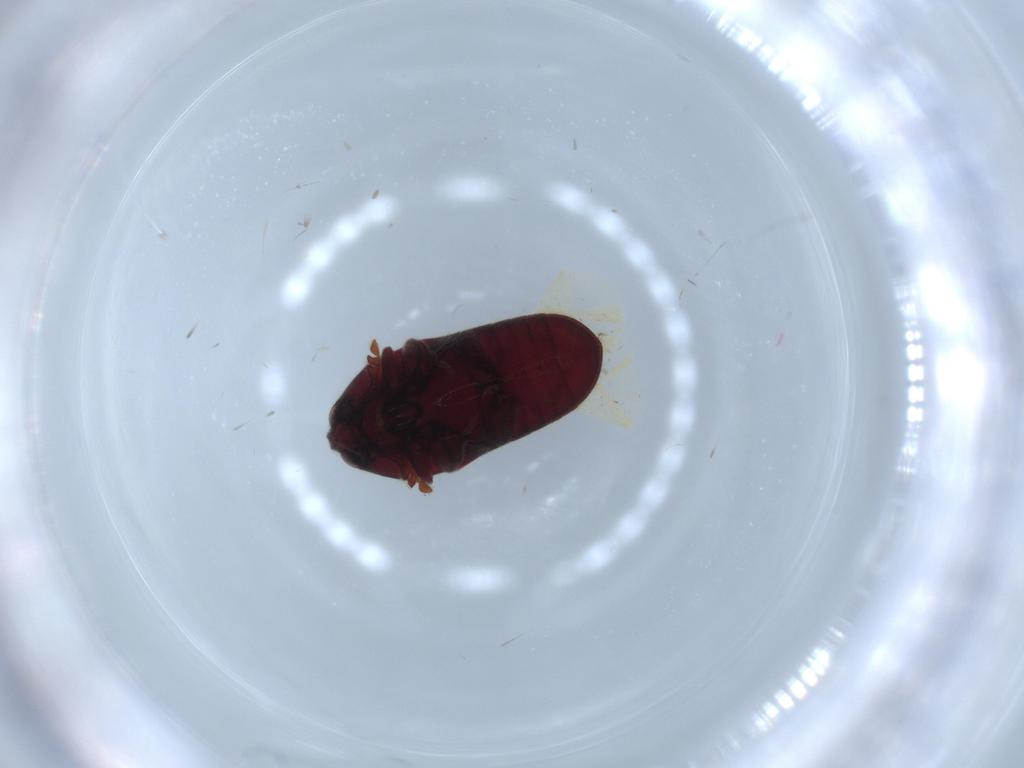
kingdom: Animalia
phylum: Arthropoda
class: Insecta
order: Coleoptera
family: Throscidae
